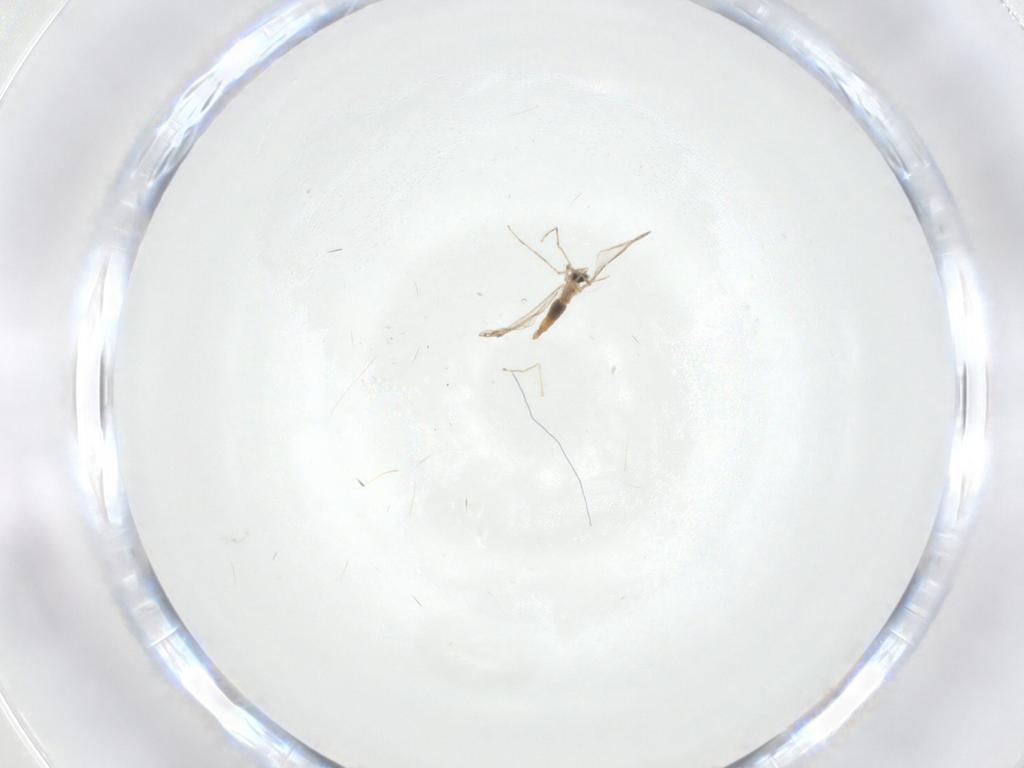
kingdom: Animalia
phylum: Arthropoda
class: Insecta
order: Diptera
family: Cecidomyiidae
